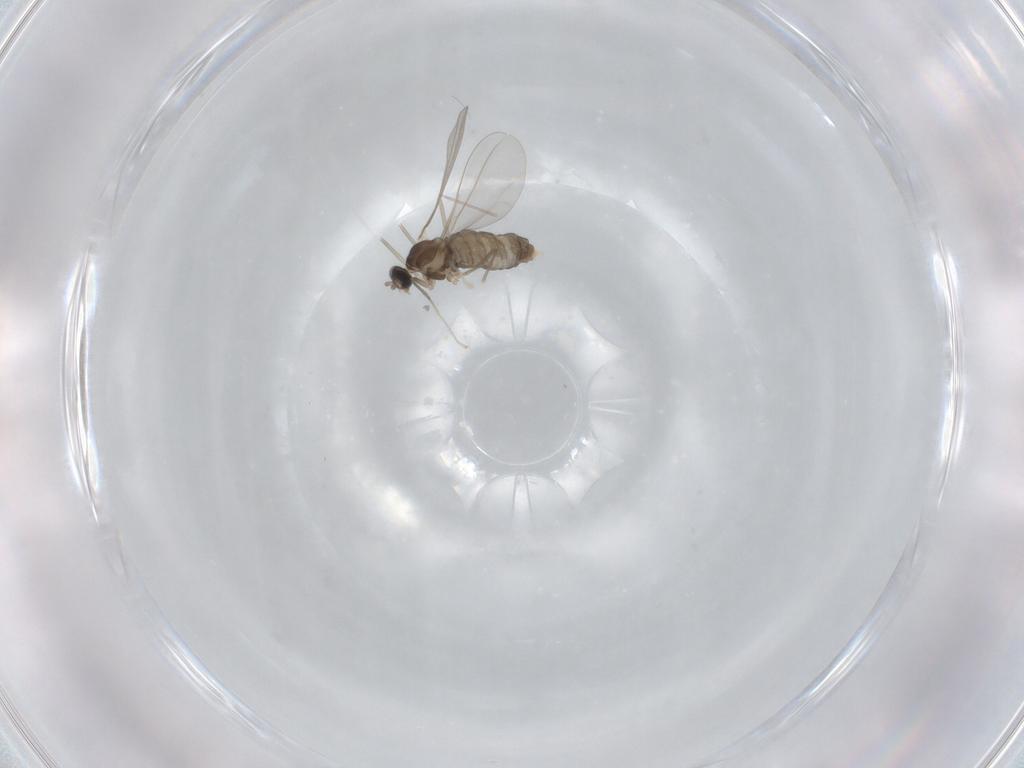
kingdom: Animalia
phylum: Arthropoda
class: Insecta
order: Diptera
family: Cecidomyiidae
